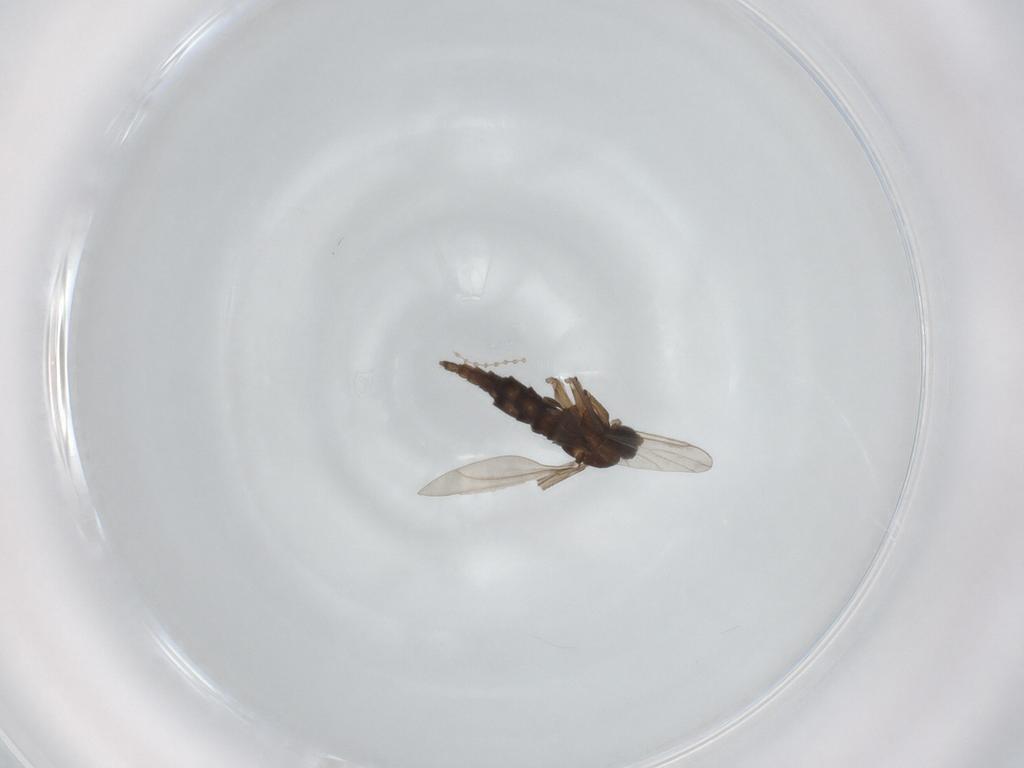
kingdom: Animalia
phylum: Arthropoda
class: Insecta
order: Diptera
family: Sciaridae
